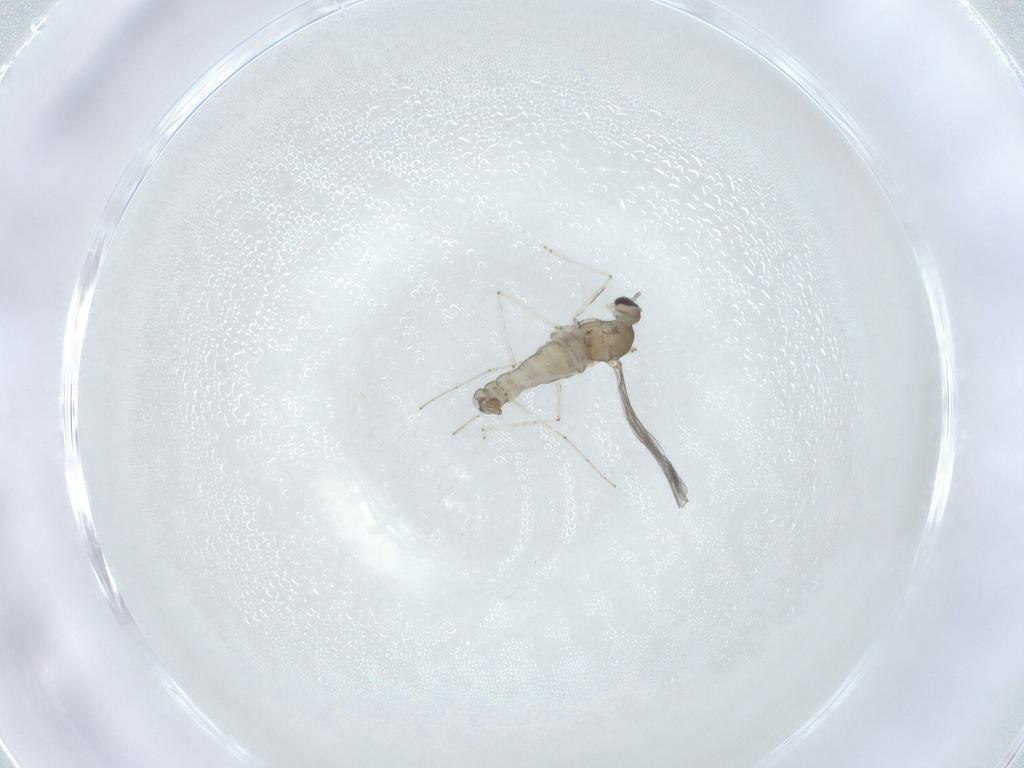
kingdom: Animalia
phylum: Arthropoda
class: Insecta
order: Diptera
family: Cecidomyiidae
